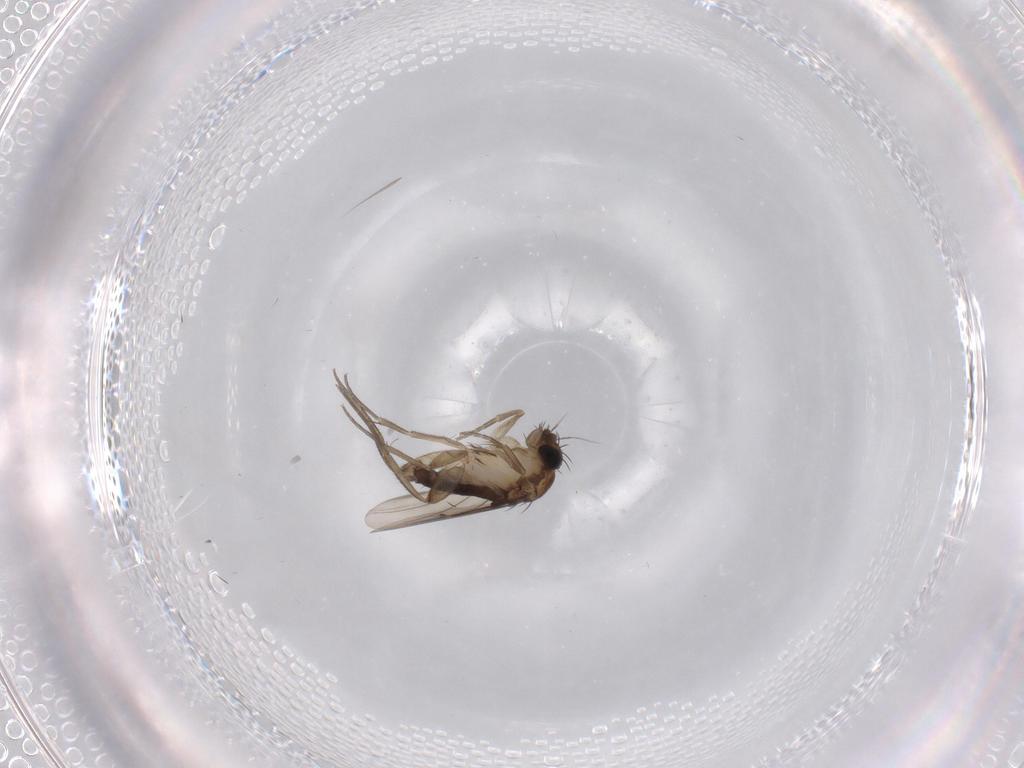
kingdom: Animalia
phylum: Arthropoda
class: Insecta
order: Diptera
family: Phoridae
